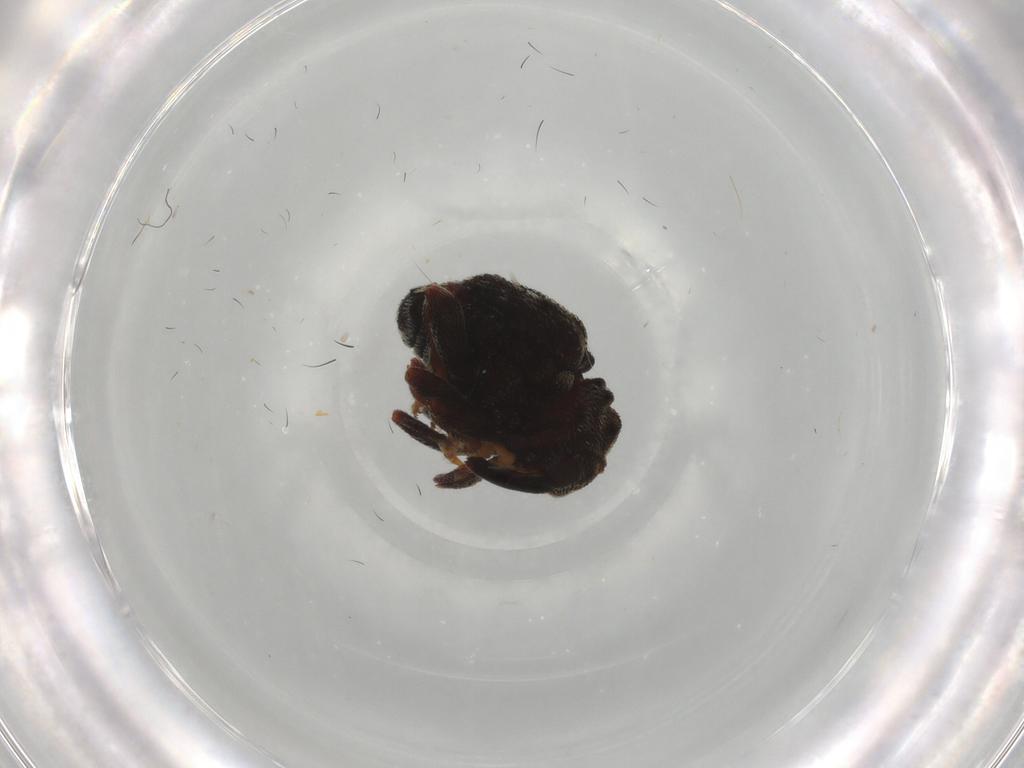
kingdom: Animalia
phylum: Arthropoda
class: Insecta
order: Coleoptera
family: Curculionidae
